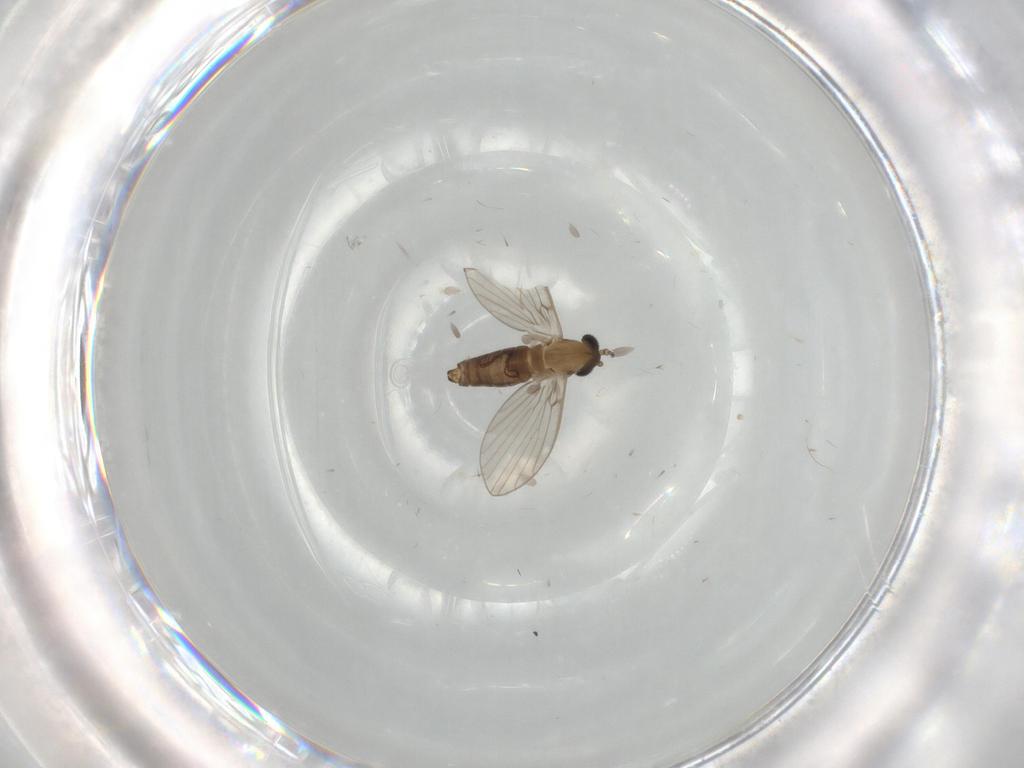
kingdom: Animalia
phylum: Arthropoda
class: Insecta
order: Diptera
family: Psychodidae
